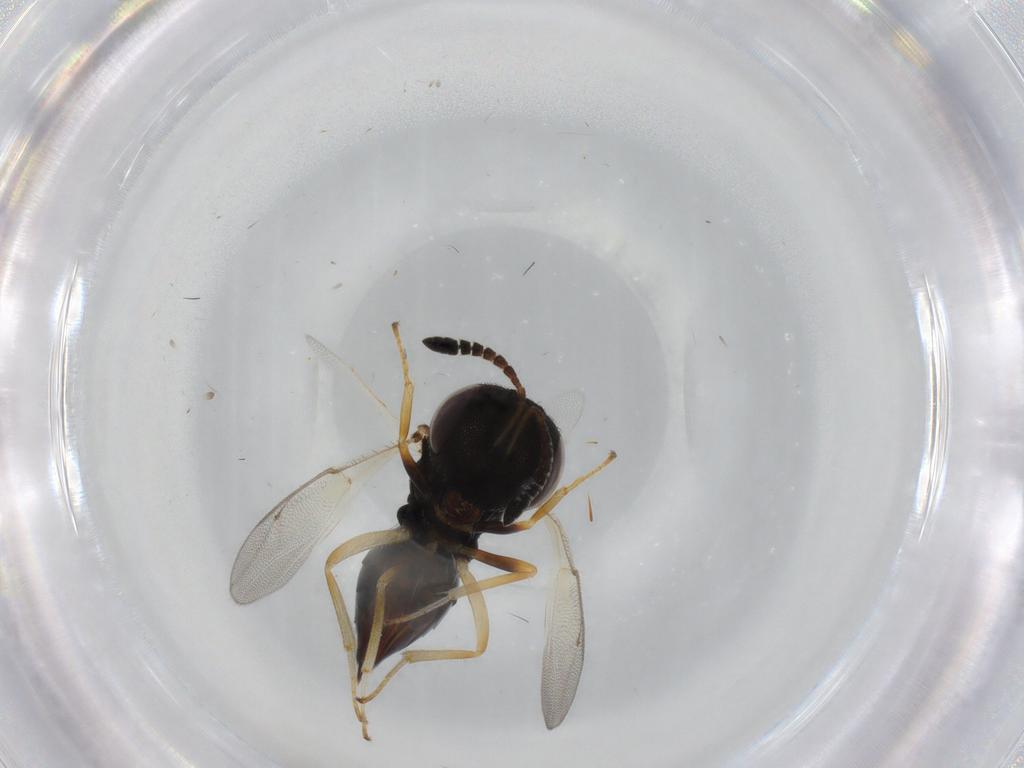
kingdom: Animalia
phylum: Arthropoda
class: Insecta
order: Hymenoptera
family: Pteromalidae
